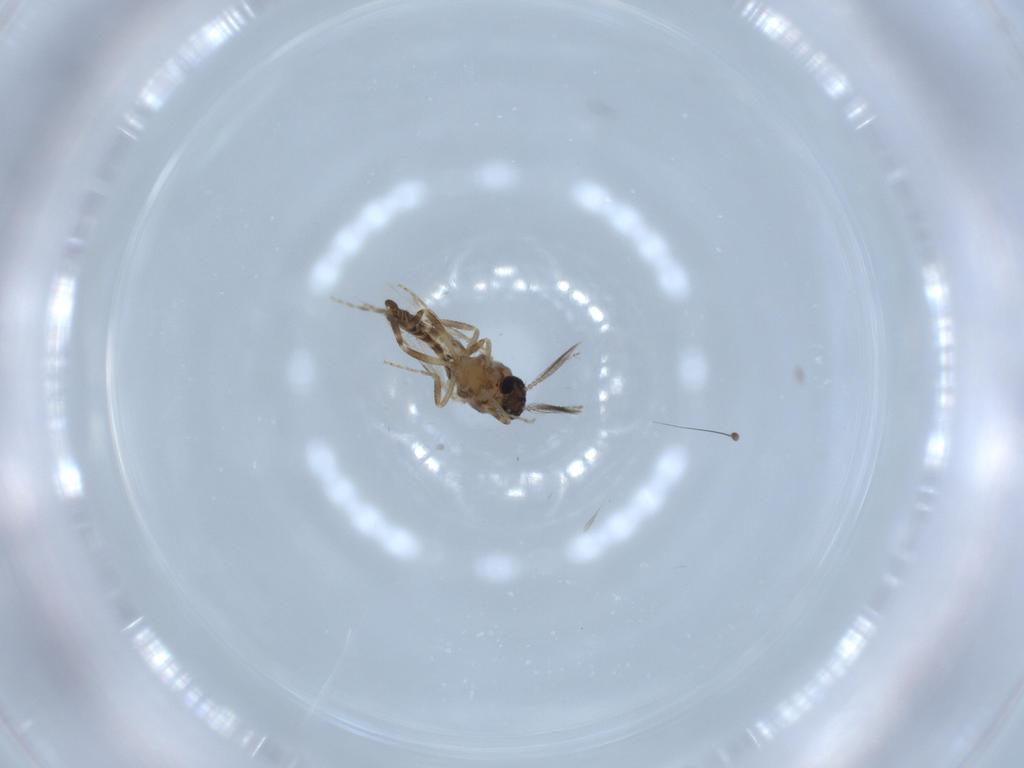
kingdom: Animalia
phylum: Arthropoda
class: Insecta
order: Diptera
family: Ceratopogonidae
